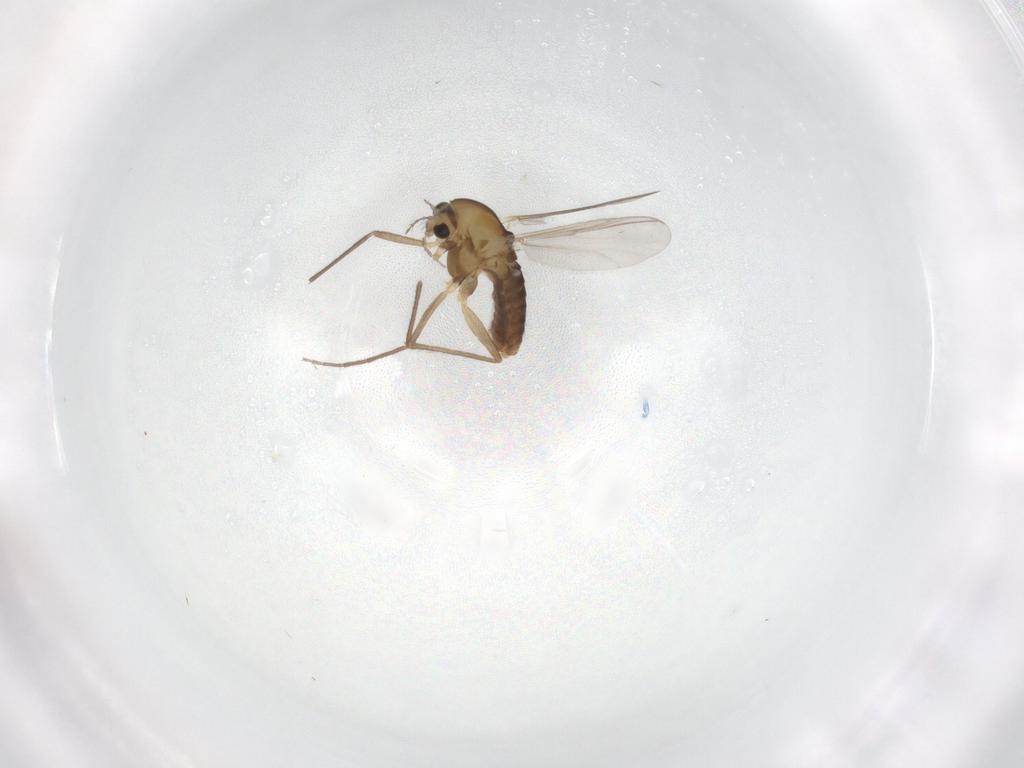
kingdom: Animalia
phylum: Arthropoda
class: Insecta
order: Diptera
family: Chironomidae
